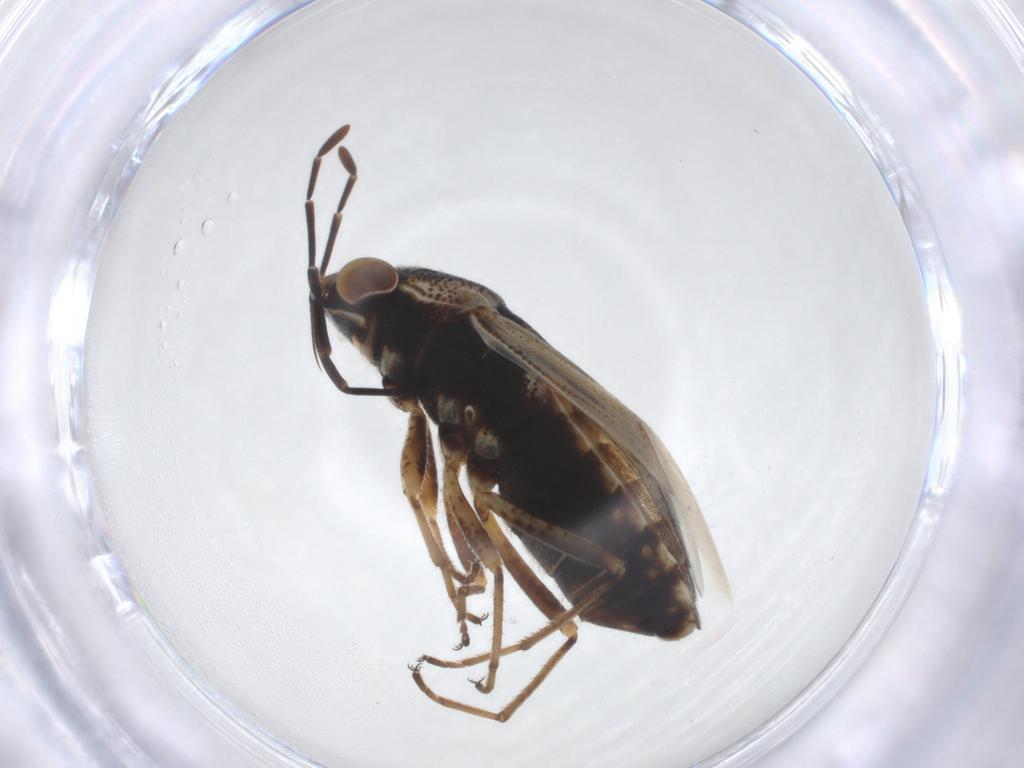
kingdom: Animalia
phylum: Arthropoda
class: Insecta
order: Hemiptera
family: Aphididae
